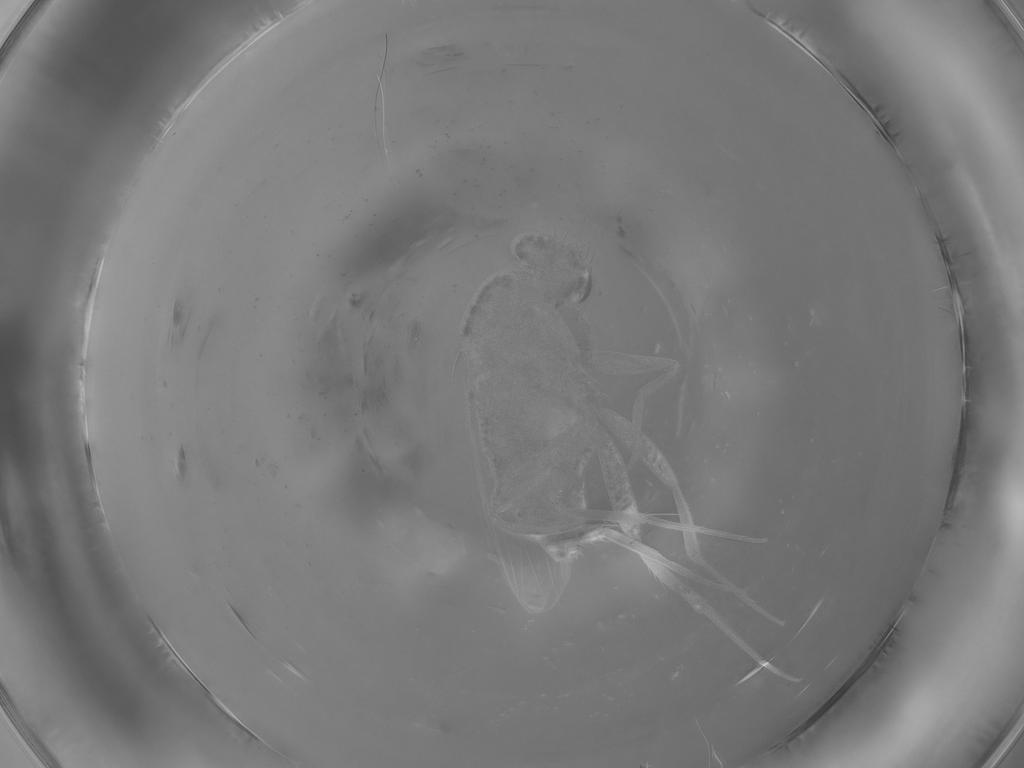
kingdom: Animalia
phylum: Arthropoda
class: Insecta
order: Diptera
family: Phoridae
